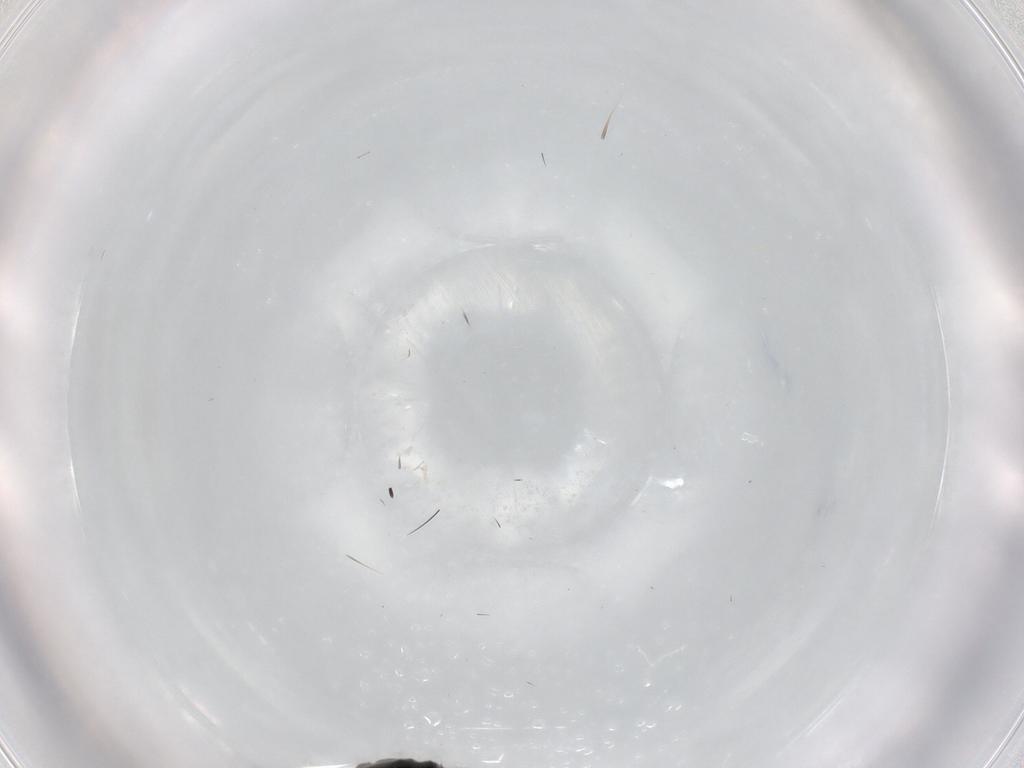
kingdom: Animalia
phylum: Arthropoda
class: Insecta
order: Diptera
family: Phoridae
